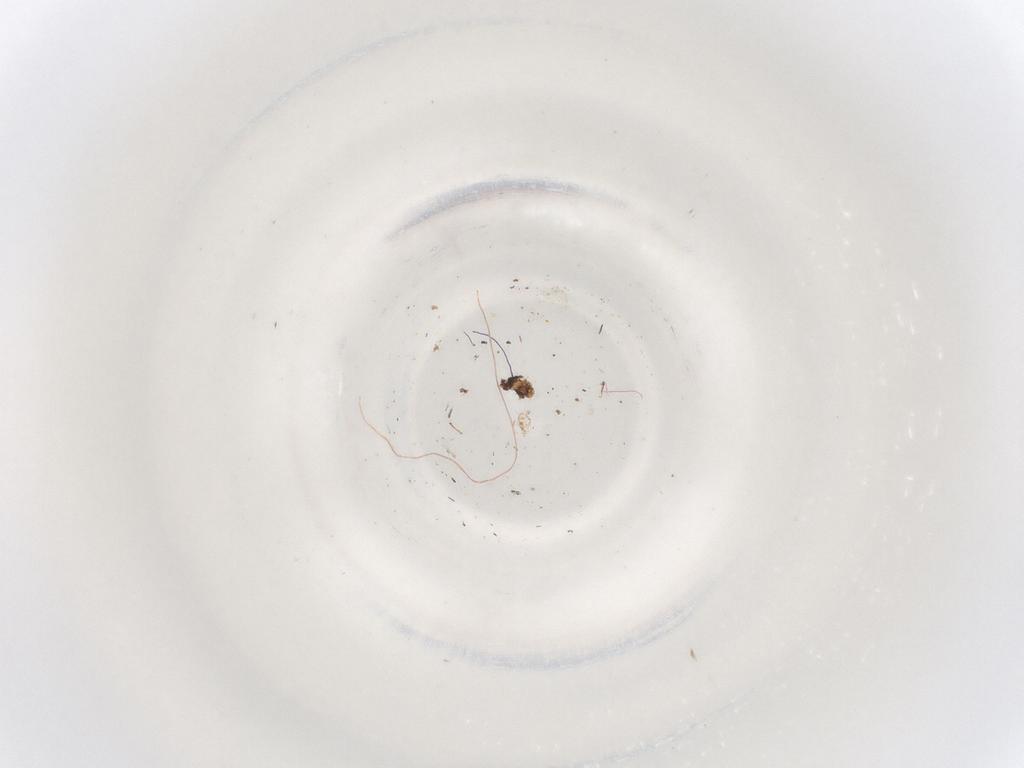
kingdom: Animalia
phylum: Arthropoda
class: Insecta
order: Hymenoptera
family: Scelionidae
